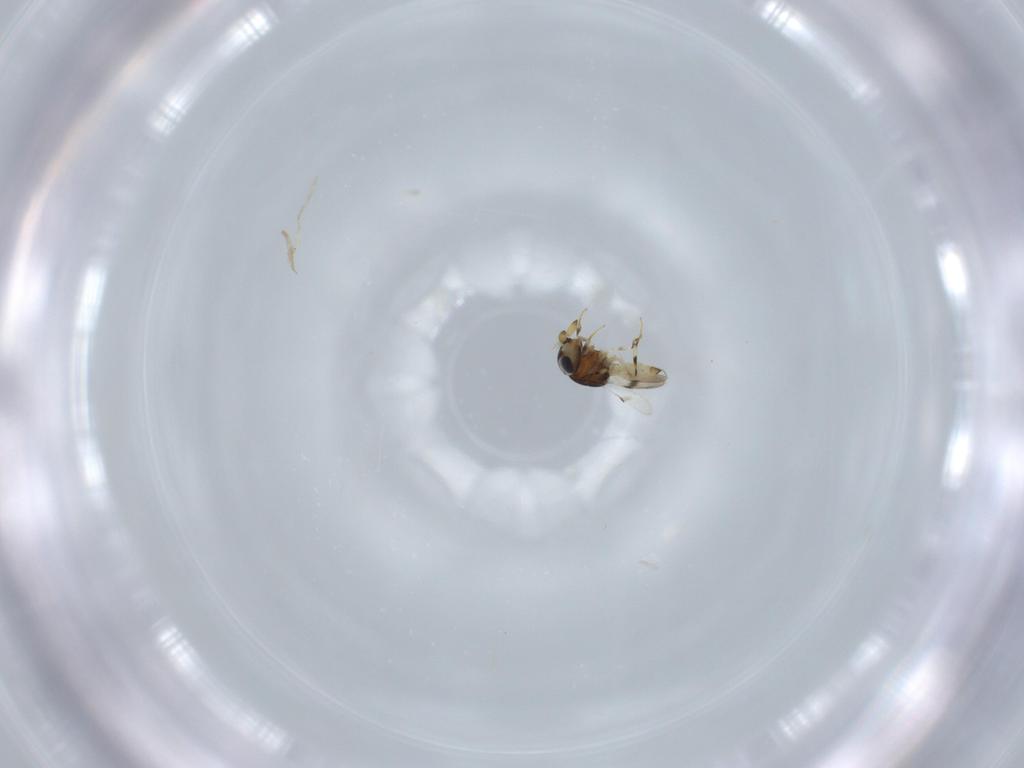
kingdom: Animalia
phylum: Arthropoda
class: Insecta
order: Hymenoptera
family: Scelionidae
